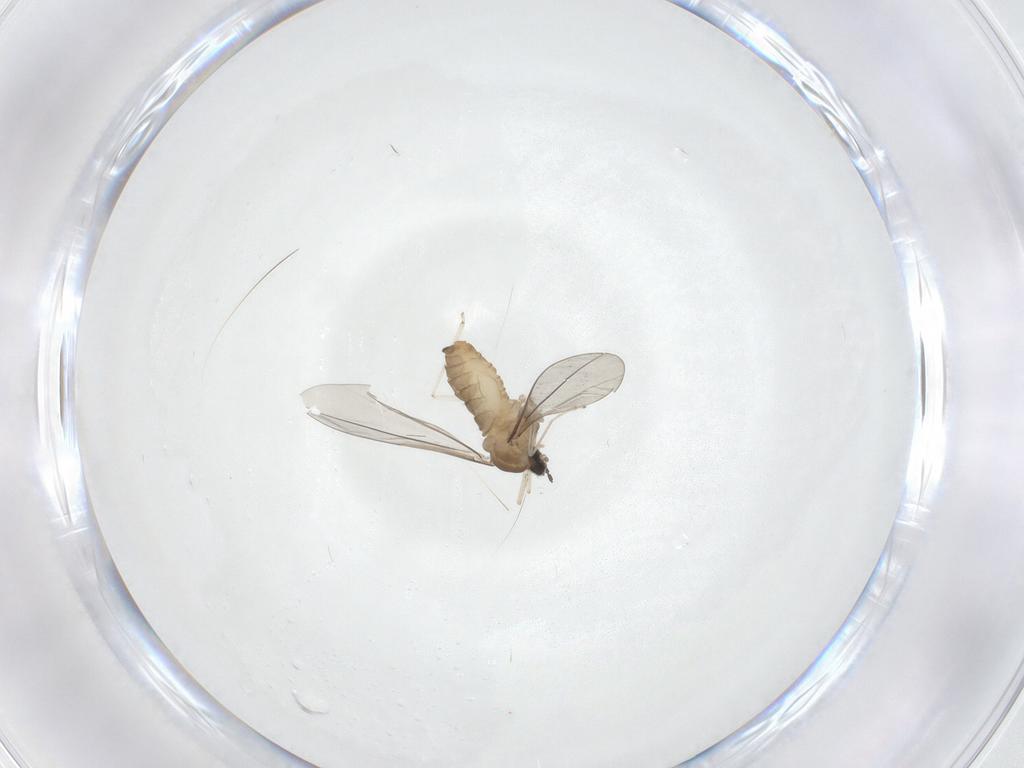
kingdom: Animalia
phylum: Arthropoda
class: Insecta
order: Diptera
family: Cecidomyiidae
